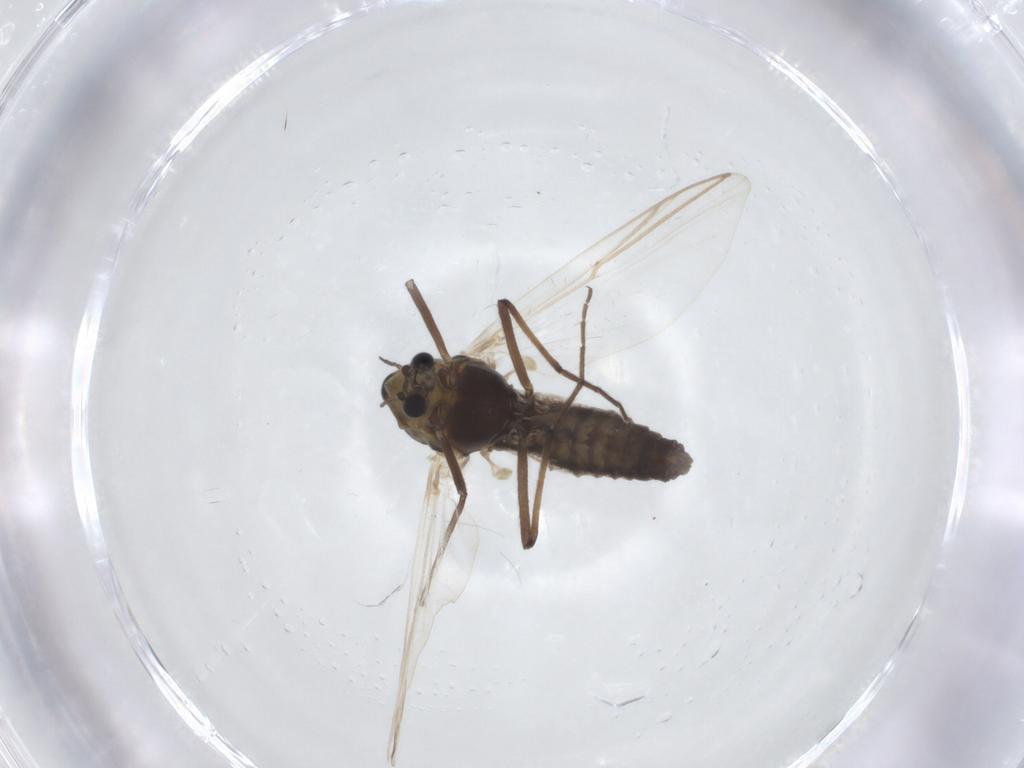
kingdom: Animalia
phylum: Arthropoda
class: Insecta
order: Diptera
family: Chironomidae
